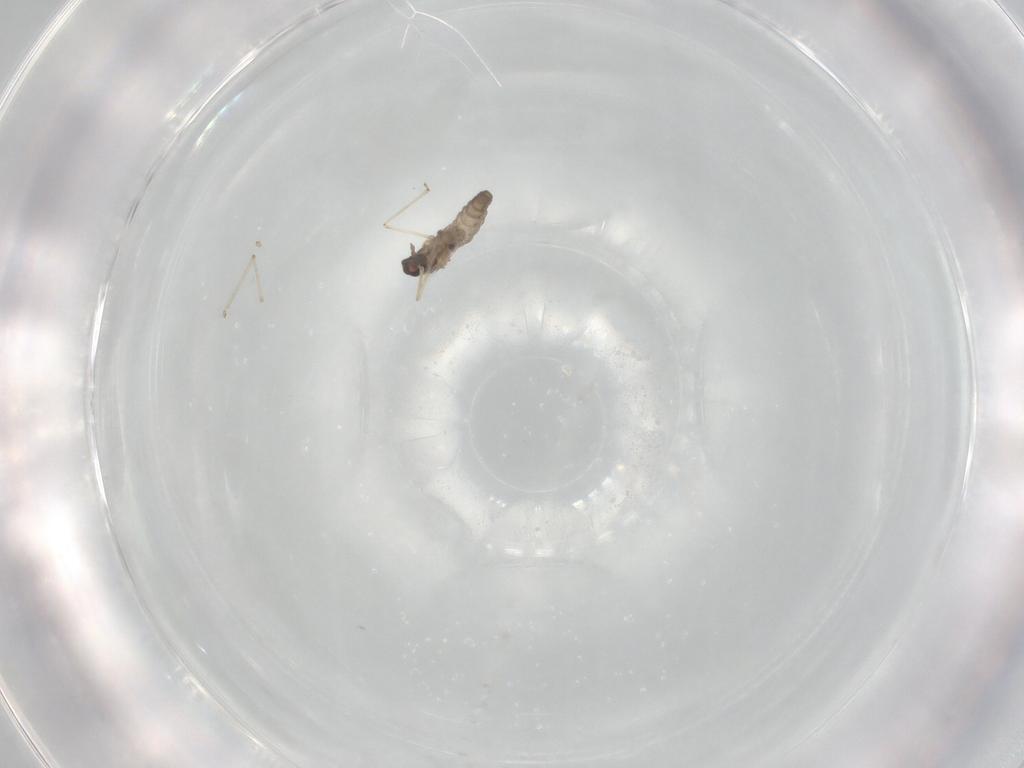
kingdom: Animalia
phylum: Arthropoda
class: Insecta
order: Diptera
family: Cecidomyiidae
